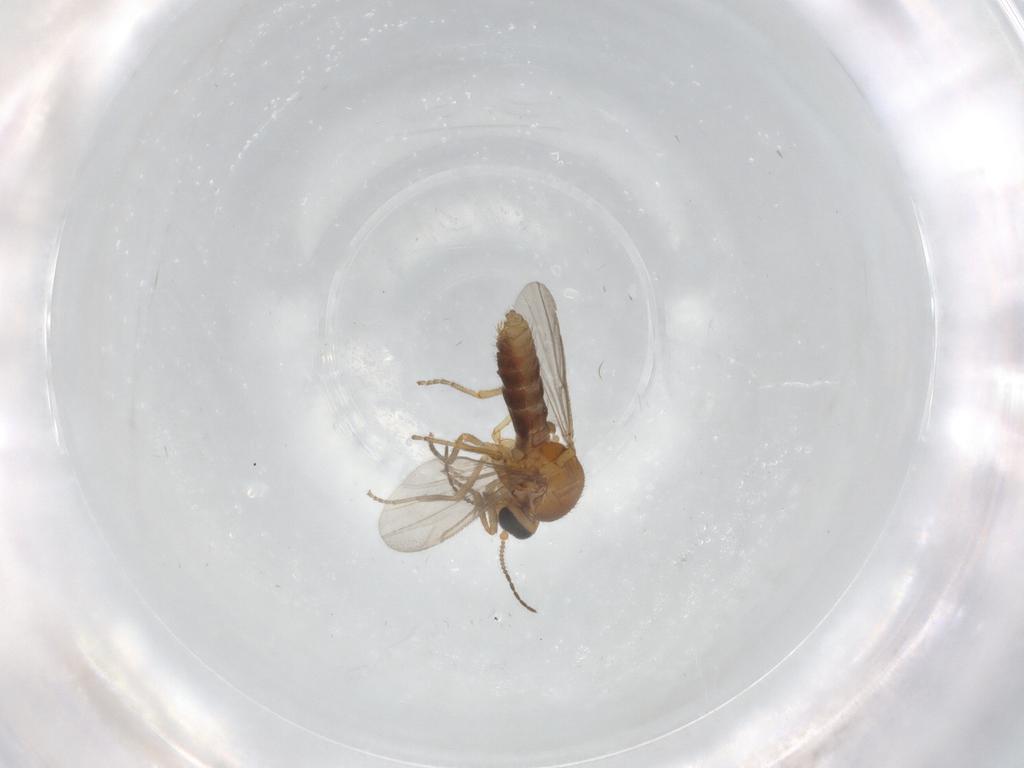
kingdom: Animalia
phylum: Arthropoda
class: Insecta
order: Diptera
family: Ceratopogonidae
